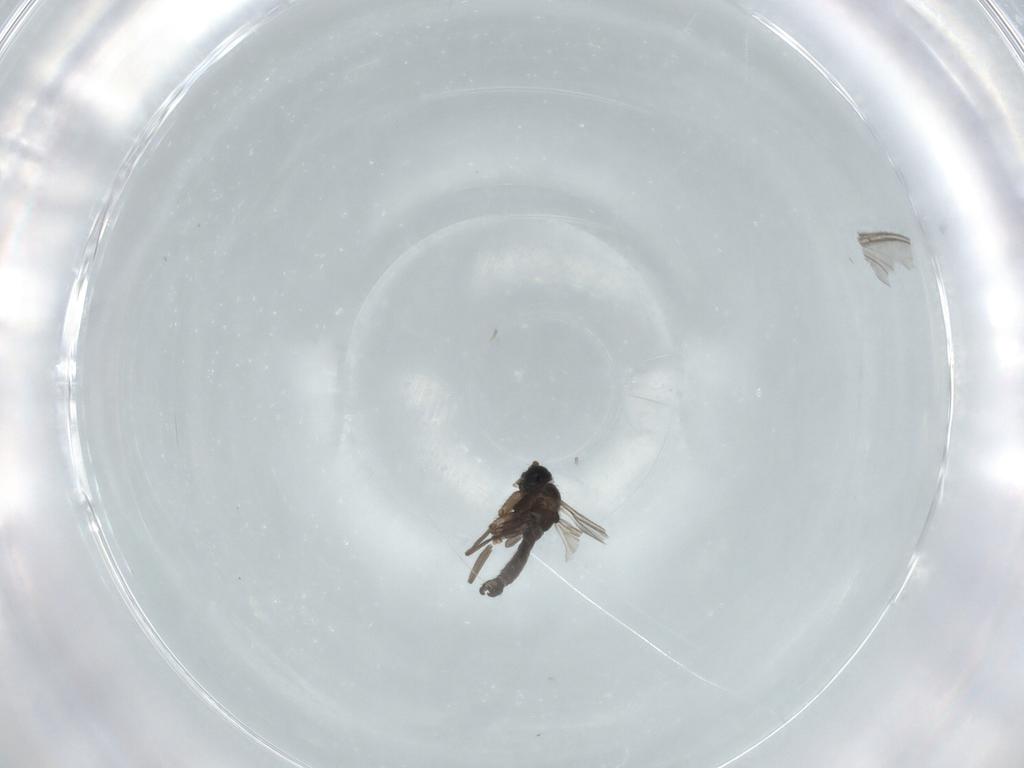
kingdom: Animalia
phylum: Arthropoda
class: Insecta
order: Diptera
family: Sciaridae
